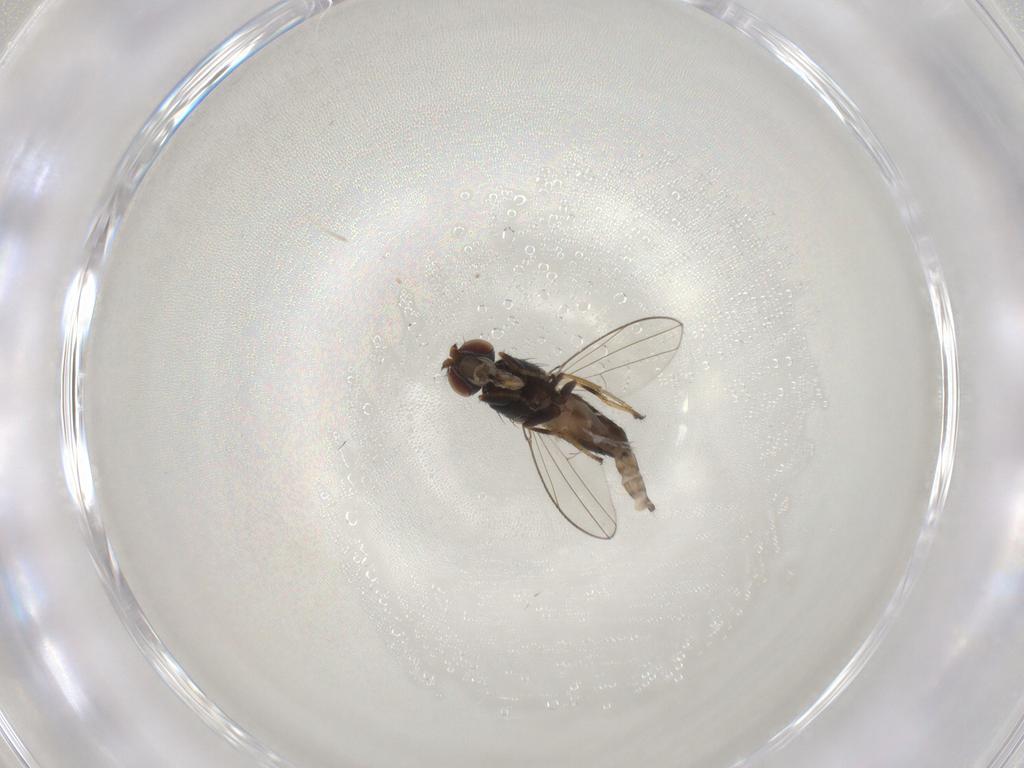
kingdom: Animalia
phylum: Arthropoda
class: Insecta
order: Diptera
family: Ephydridae
